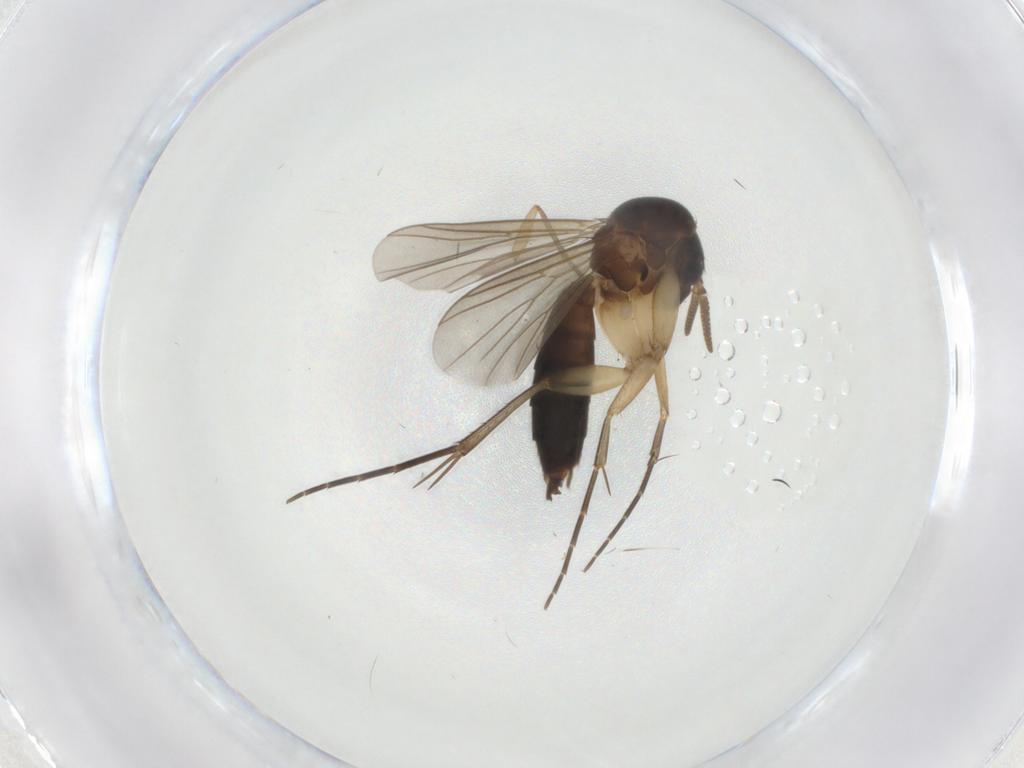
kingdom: Animalia
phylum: Arthropoda
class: Insecta
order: Diptera
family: Mycetophilidae
